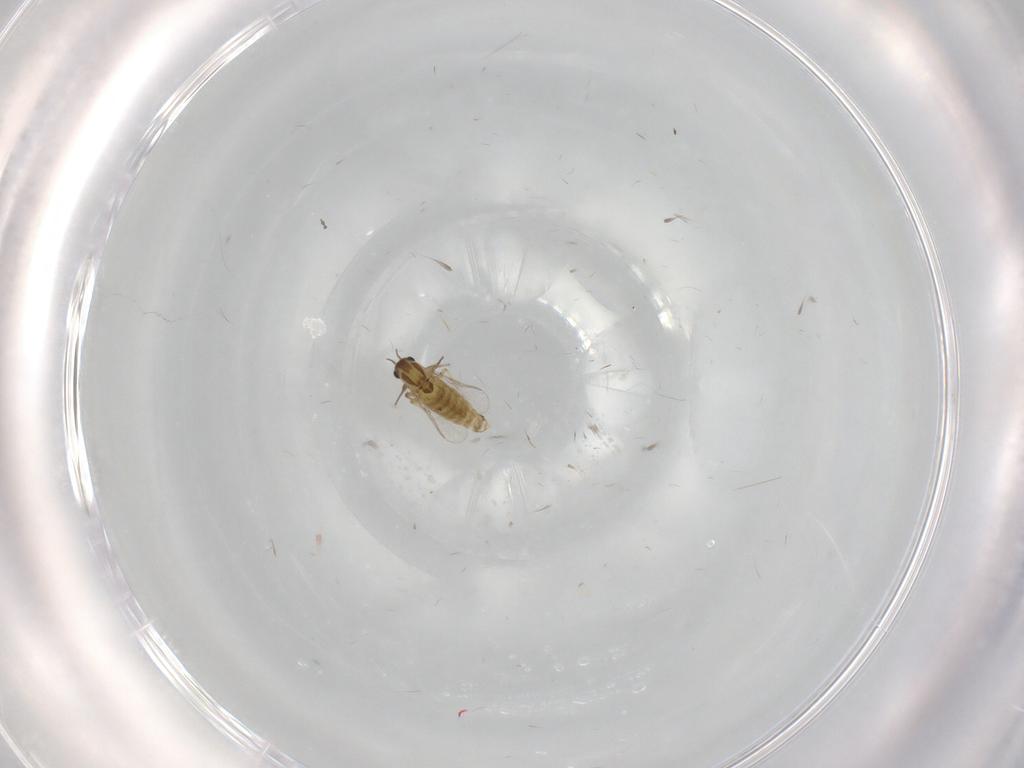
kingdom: Animalia
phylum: Arthropoda
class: Insecta
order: Diptera
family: Chironomidae
